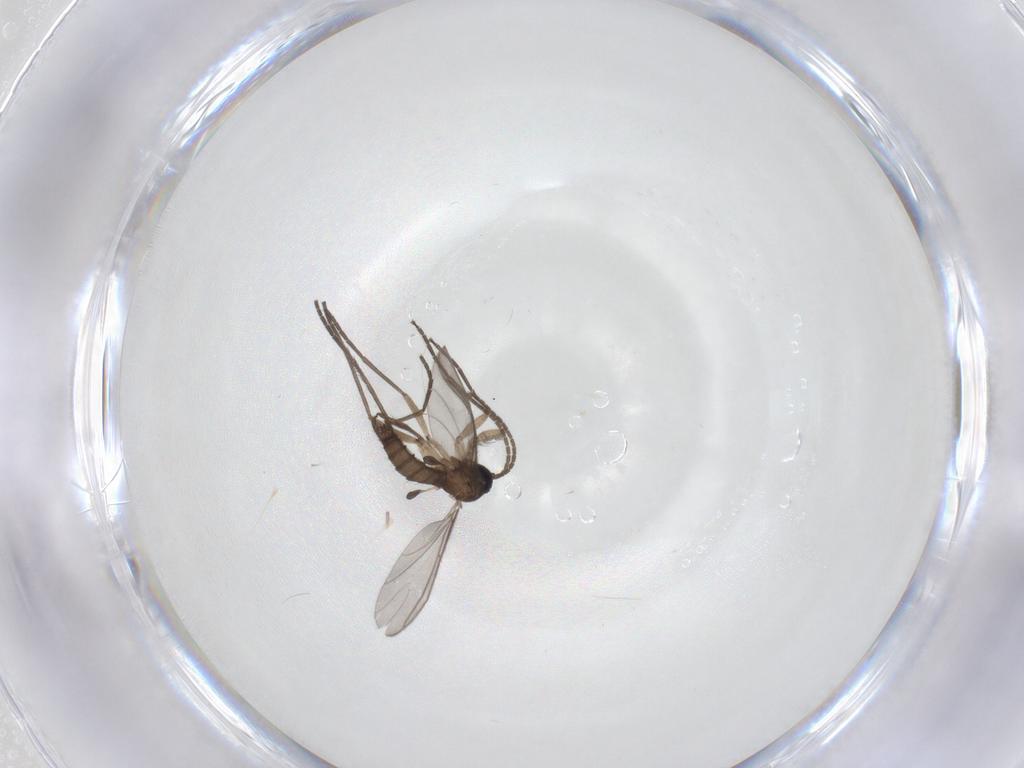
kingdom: Animalia
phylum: Arthropoda
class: Insecta
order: Diptera
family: Sciaridae
